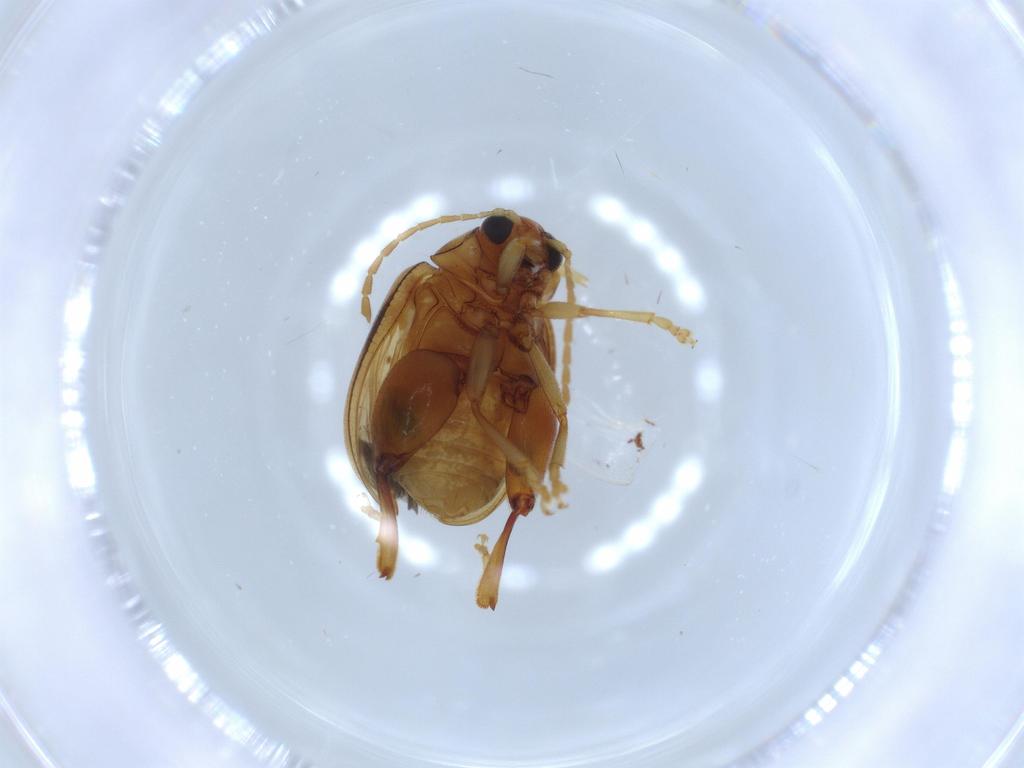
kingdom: Animalia
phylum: Arthropoda
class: Insecta
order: Coleoptera
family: Chrysomelidae
